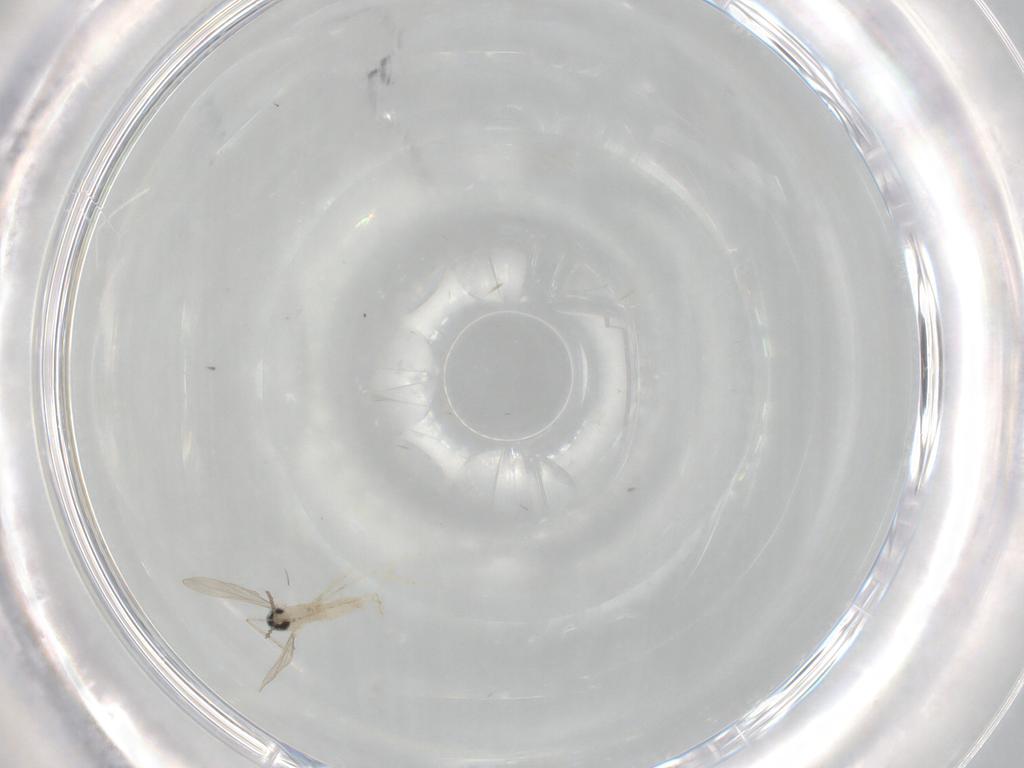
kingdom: Animalia
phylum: Arthropoda
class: Insecta
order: Diptera
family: Cecidomyiidae
